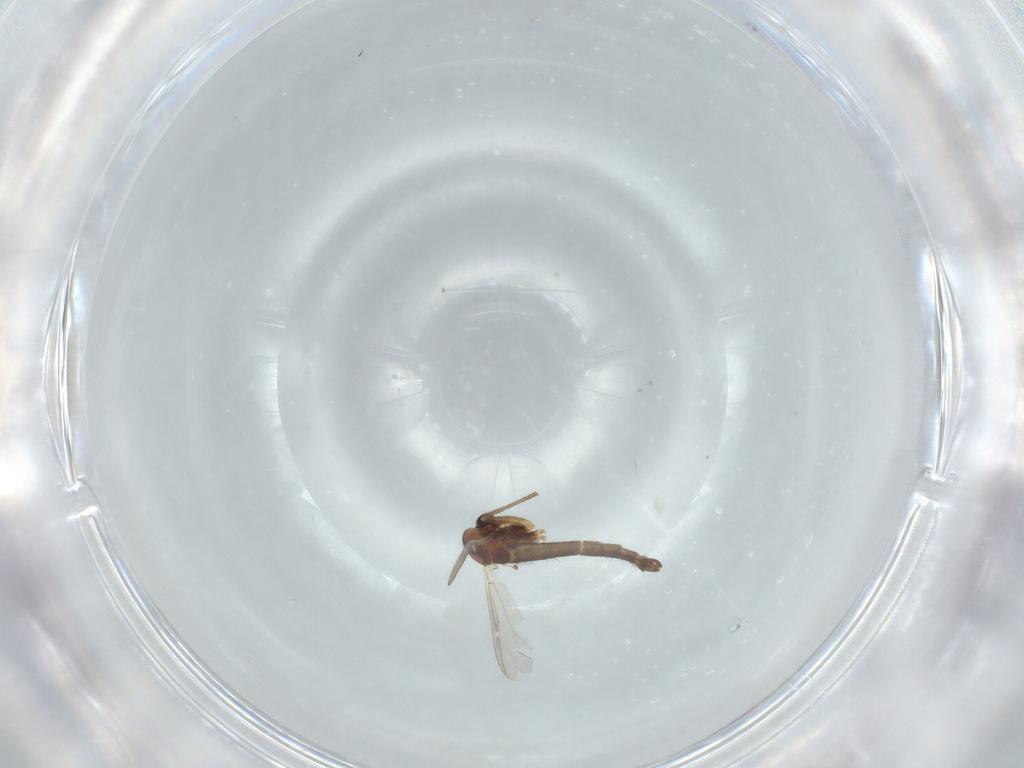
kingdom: Animalia
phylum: Arthropoda
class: Insecta
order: Diptera
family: Chironomidae
